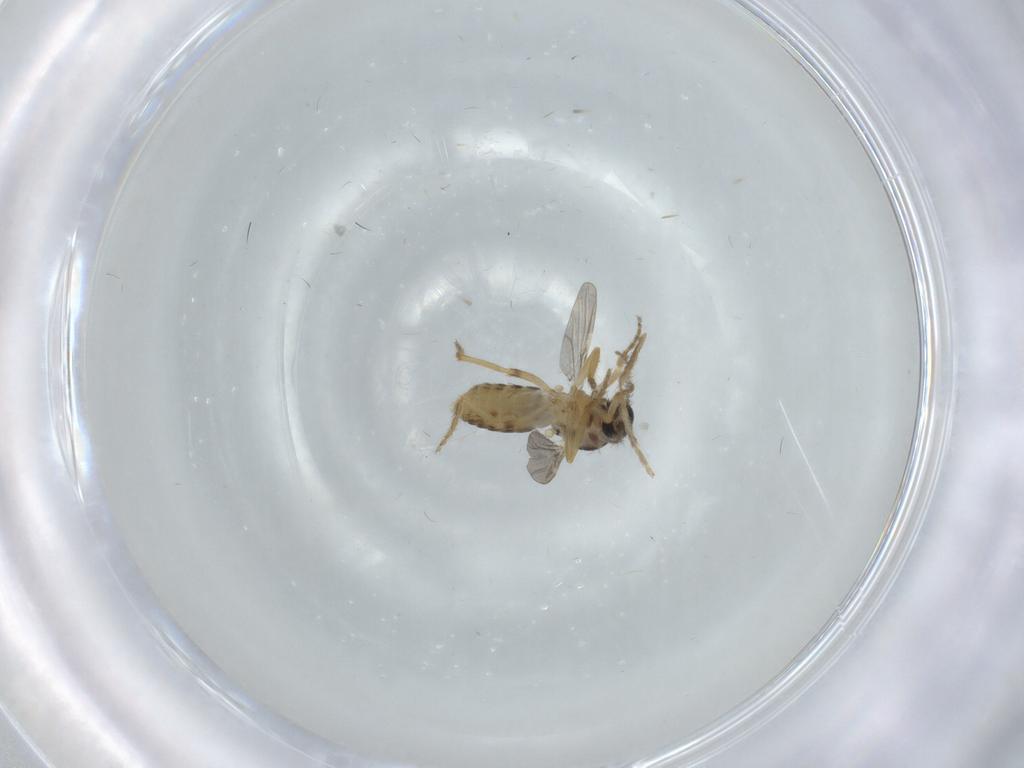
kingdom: Animalia
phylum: Arthropoda
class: Insecta
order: Diptera
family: Ceratopogonidae
